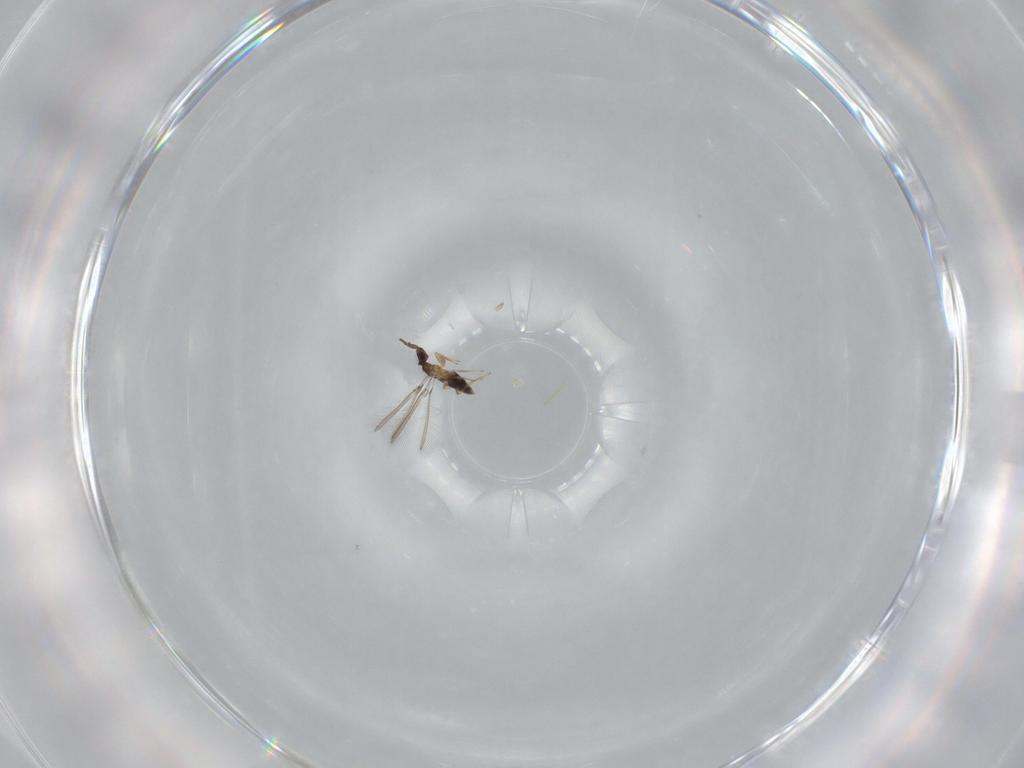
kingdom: Animalia
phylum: Arthropoda
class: Insecta
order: Hymenoptera
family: Mymaridae
